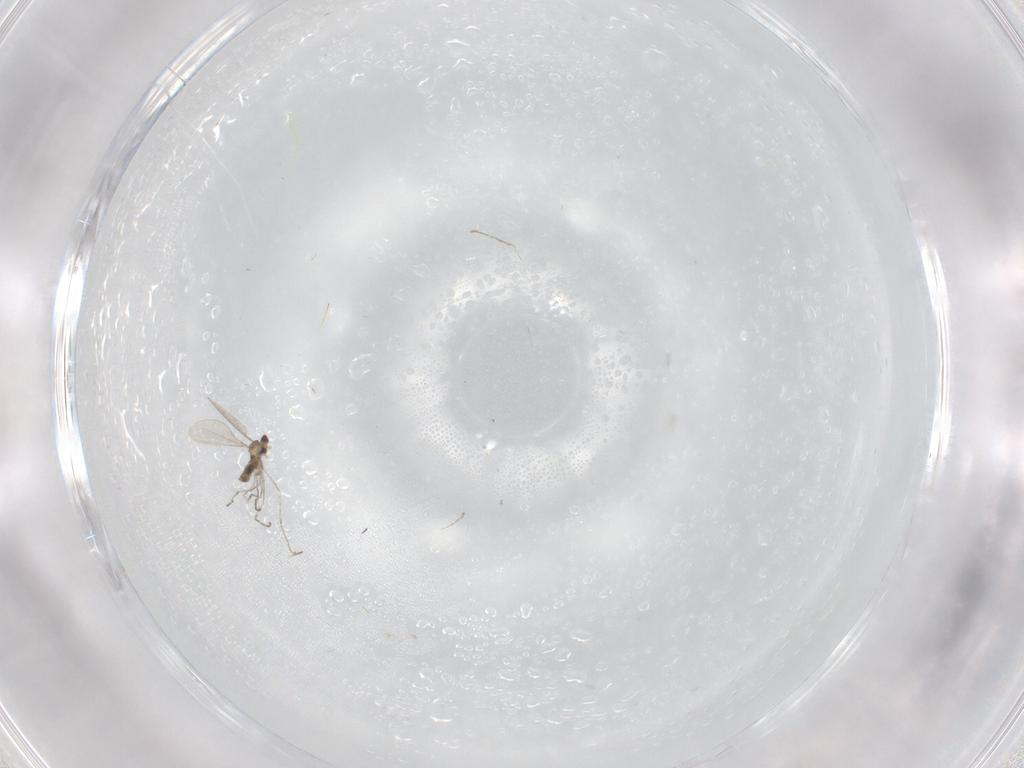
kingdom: Animalia
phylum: Arthropoda
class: Insecta
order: Diptera
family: Cecidomyiidae
